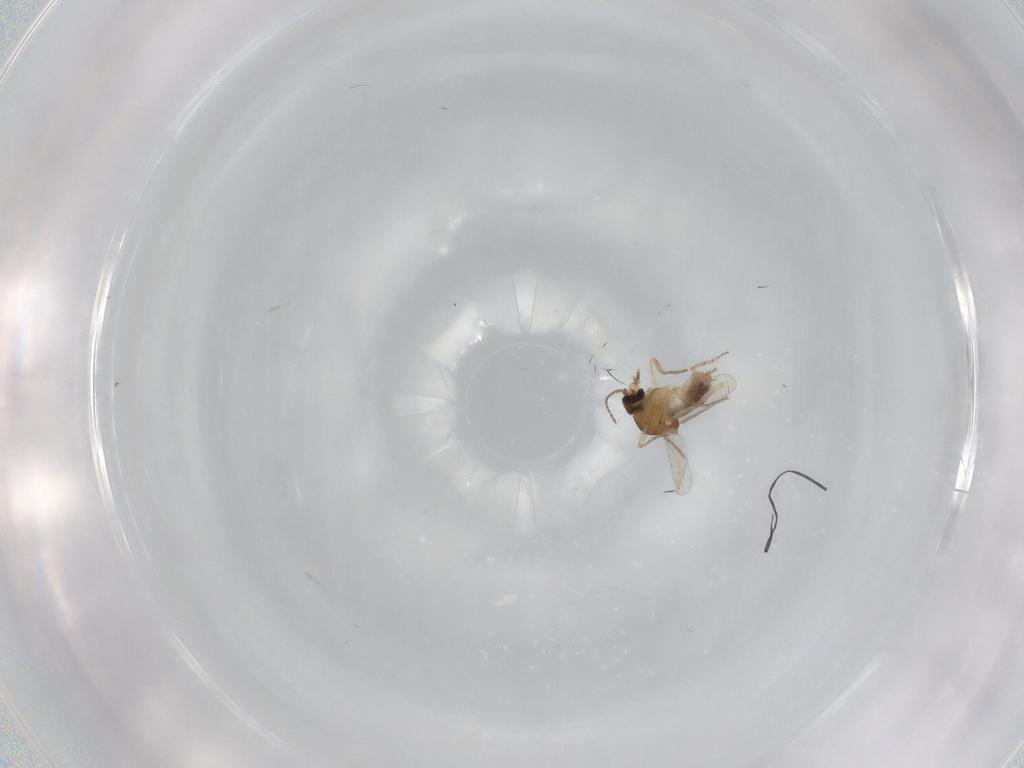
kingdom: Animalia
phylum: Arthropoda
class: Insecta
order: Diptera
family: Ceratopogonidae
